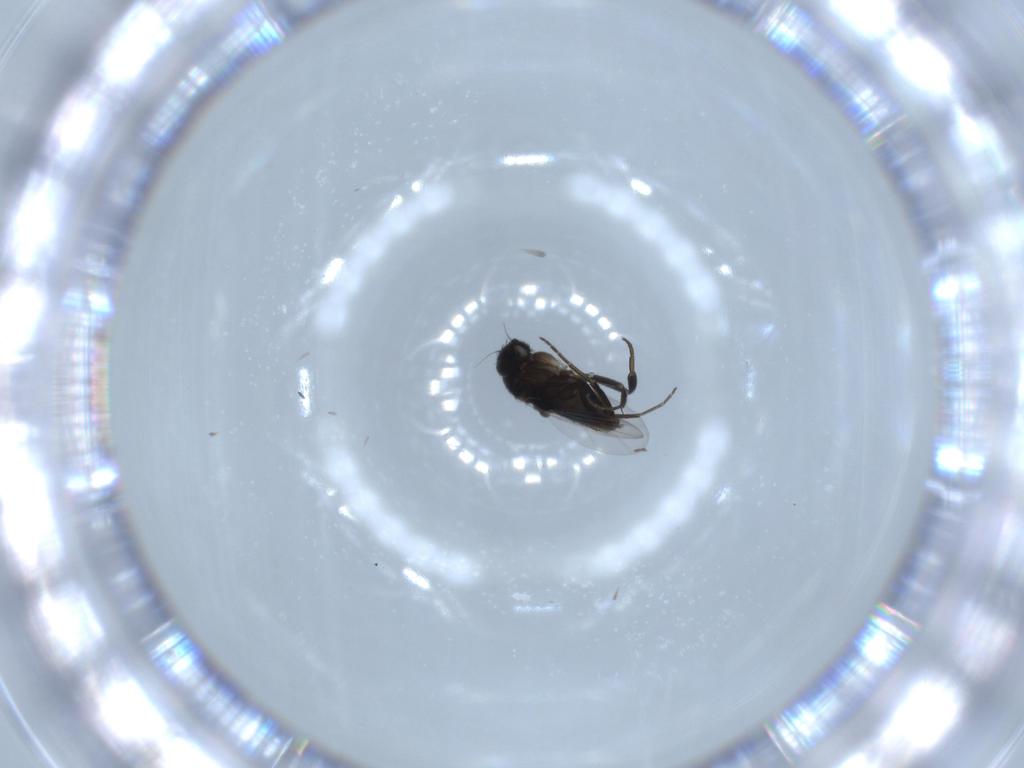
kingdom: Animalia
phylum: Arthropoda
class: Insecta
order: Diptera
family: Phoridae
